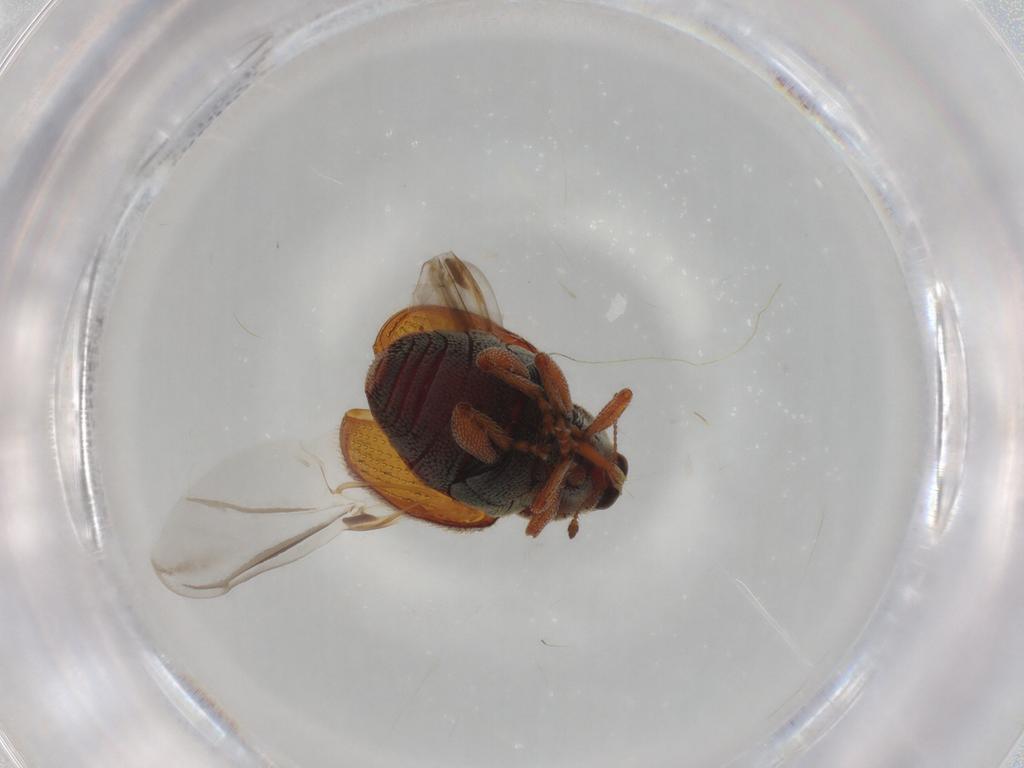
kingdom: Animalia
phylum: Arthropoda
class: Insecta
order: Coleoptera
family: Curculionidae
